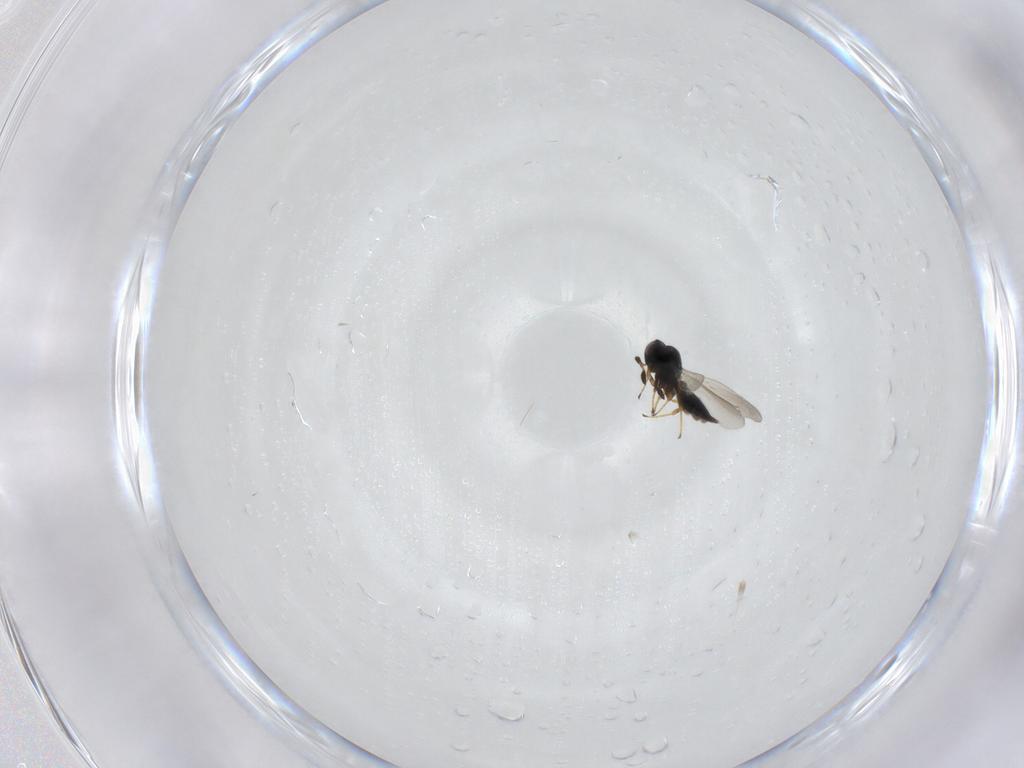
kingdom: Animalia
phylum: Arthropoda
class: Insecta
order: Hymenoptera
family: Platygastridae
